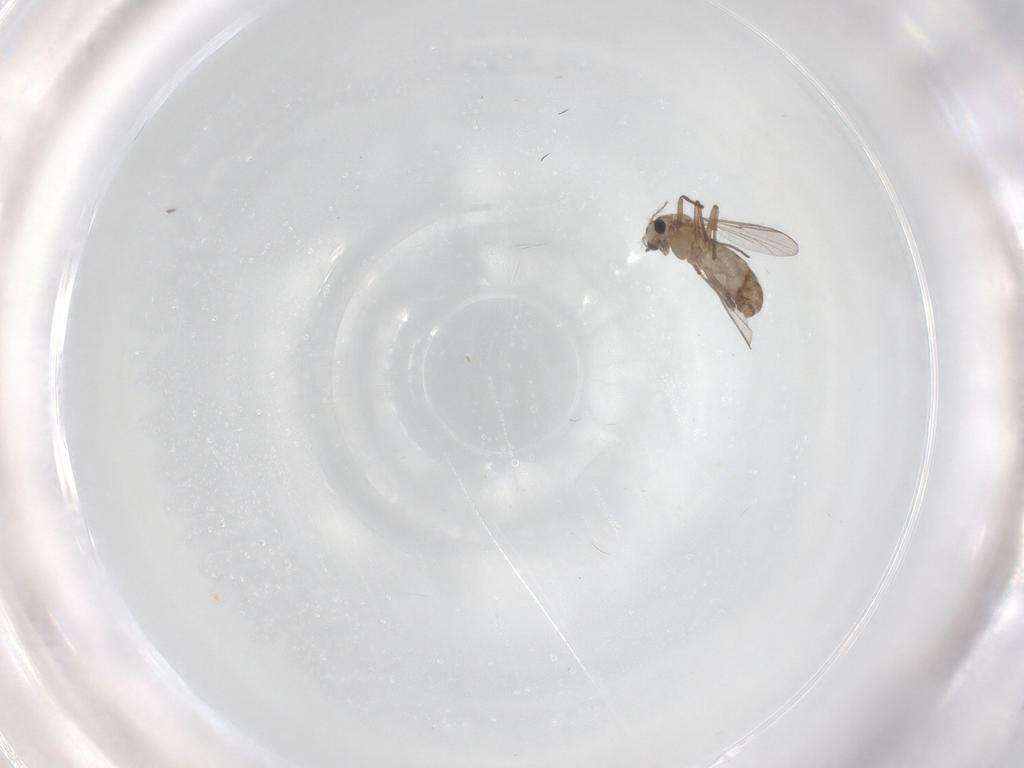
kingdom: Animalia
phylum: Arthropoda
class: Insecta
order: Diptera
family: Chironomidae
